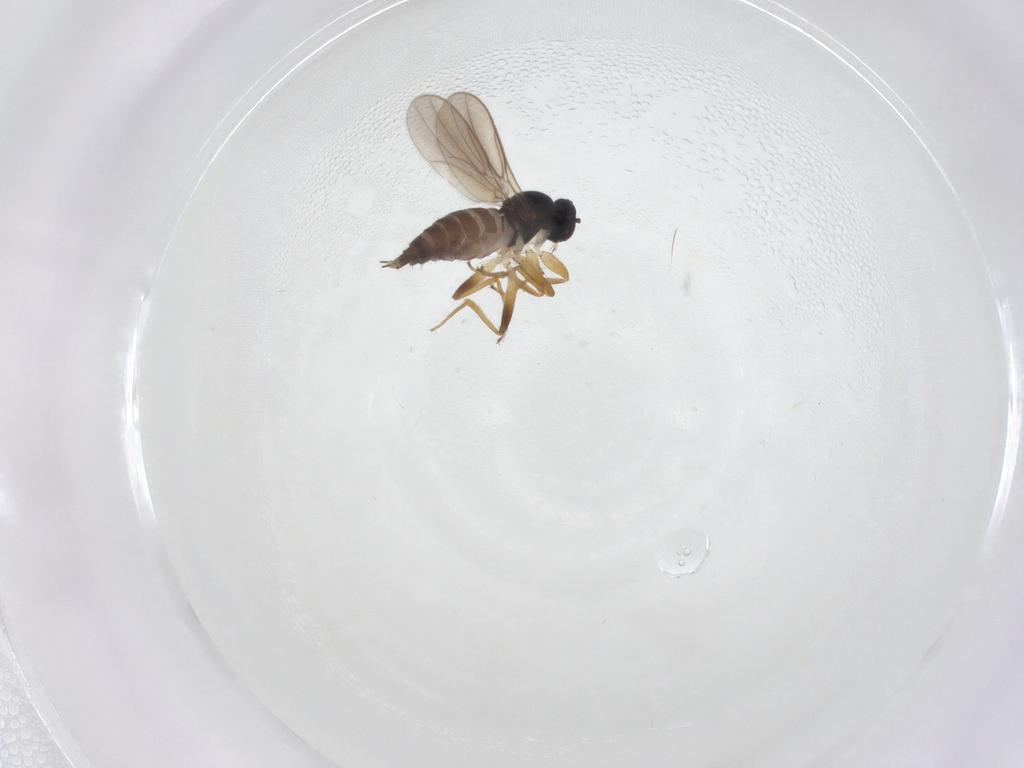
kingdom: Animalia
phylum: Arthropoda
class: Insecta
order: Diptera
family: Hybotidae
